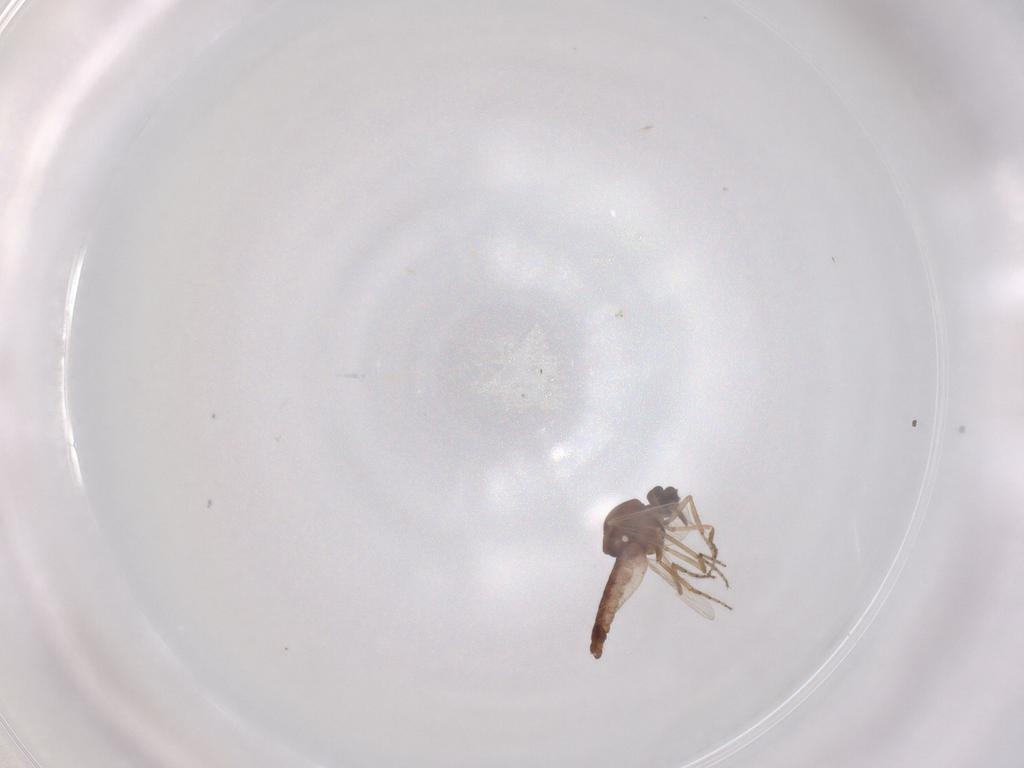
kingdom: Animalia
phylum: Arthropoda
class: Insecta
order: Diptera
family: Ceratopogonidae
